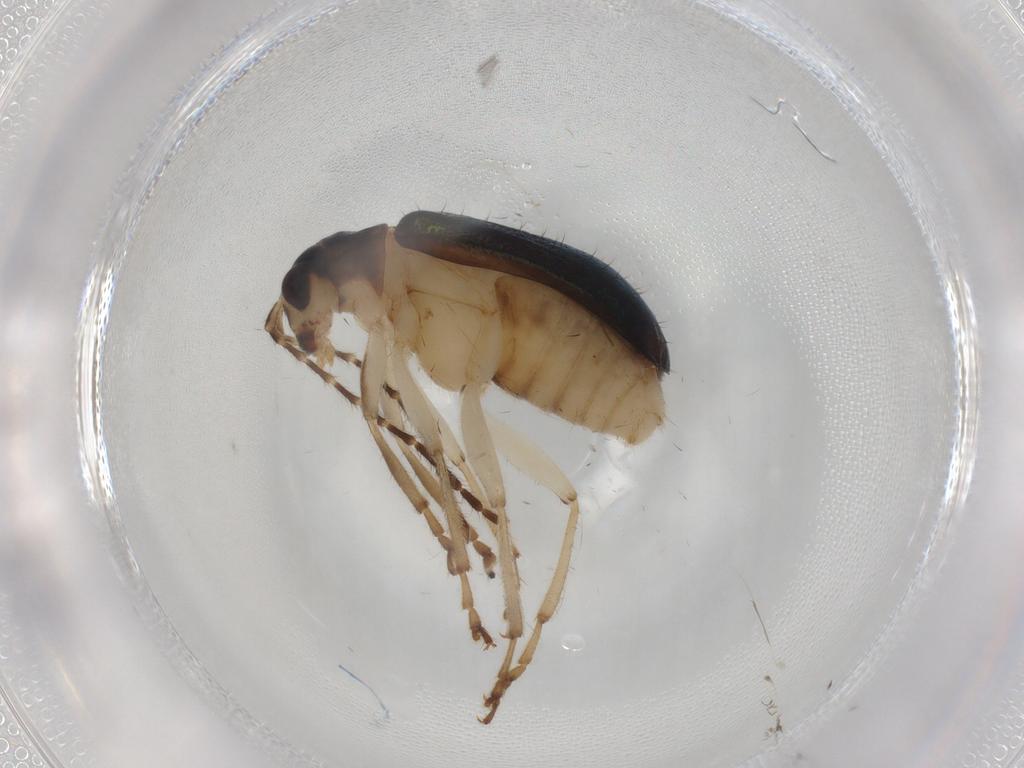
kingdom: Animalia
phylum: Arthropoda
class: Insecta
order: Coleoptera
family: Chrysomelidae
